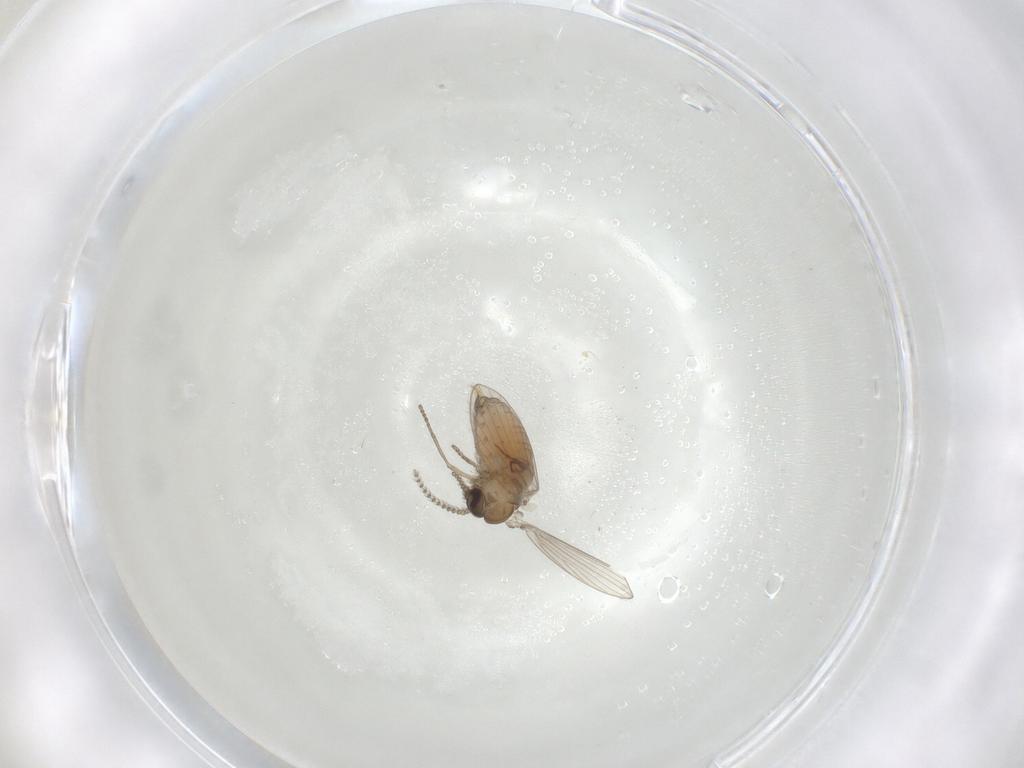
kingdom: Animalia
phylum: Arthropoda
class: Insecta
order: Diptera
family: Psychodidae
